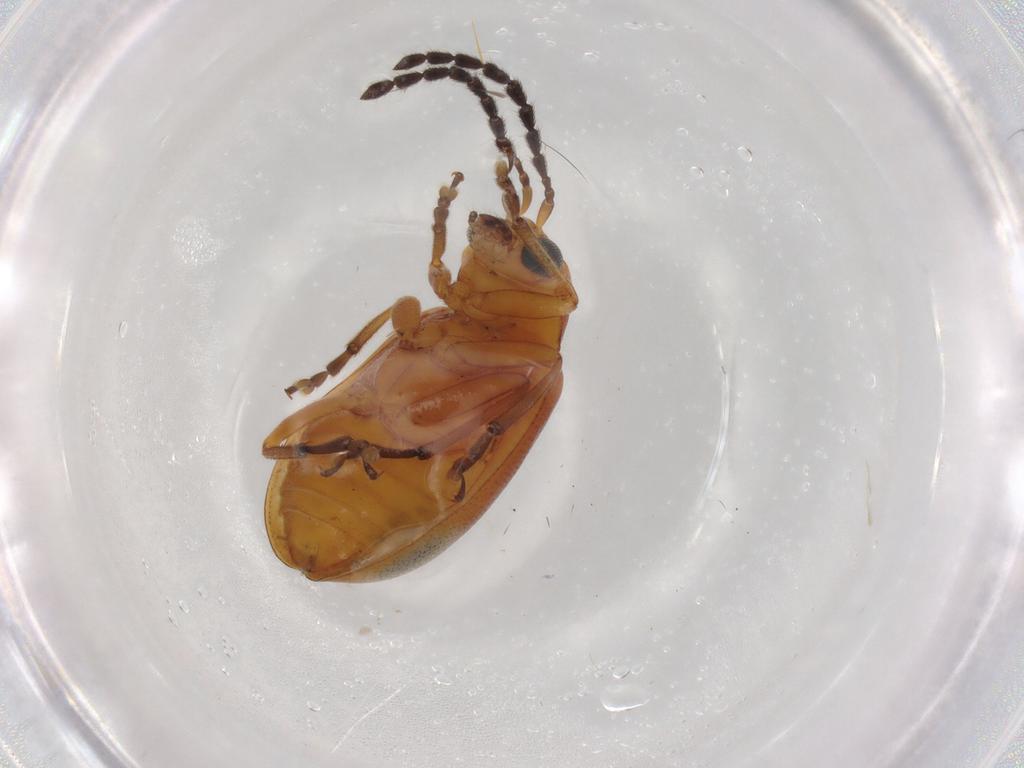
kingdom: Animalia
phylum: Arthropoda
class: Insecta
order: Coleoptera
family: Chrysomelidae
